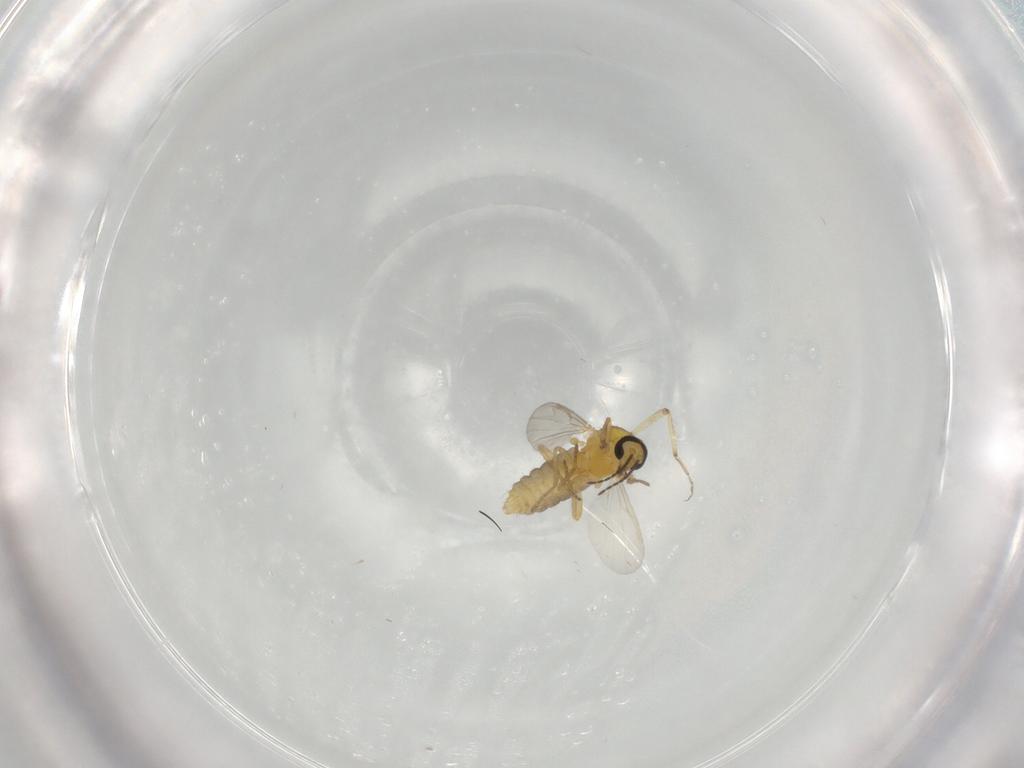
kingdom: Animalia
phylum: Arthropoda
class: Insecta
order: Diptera
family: Ceratopogonidae
